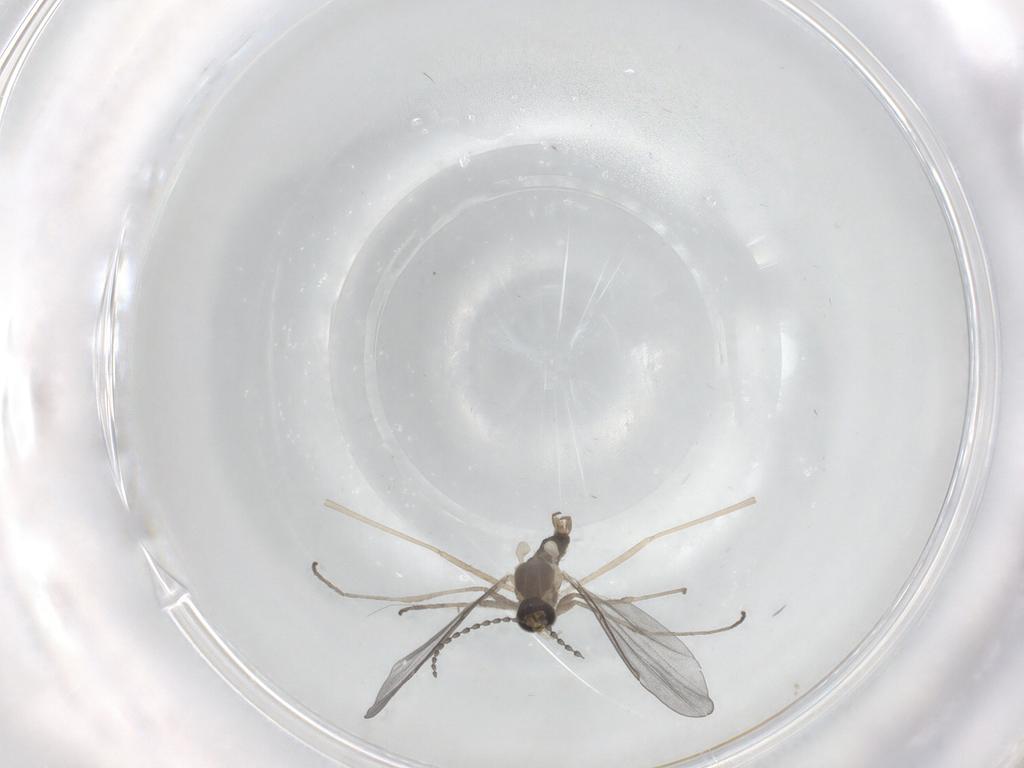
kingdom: Animalia
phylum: Arthropoda
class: Insecta
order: Diptera
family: Cecidomyiidae
